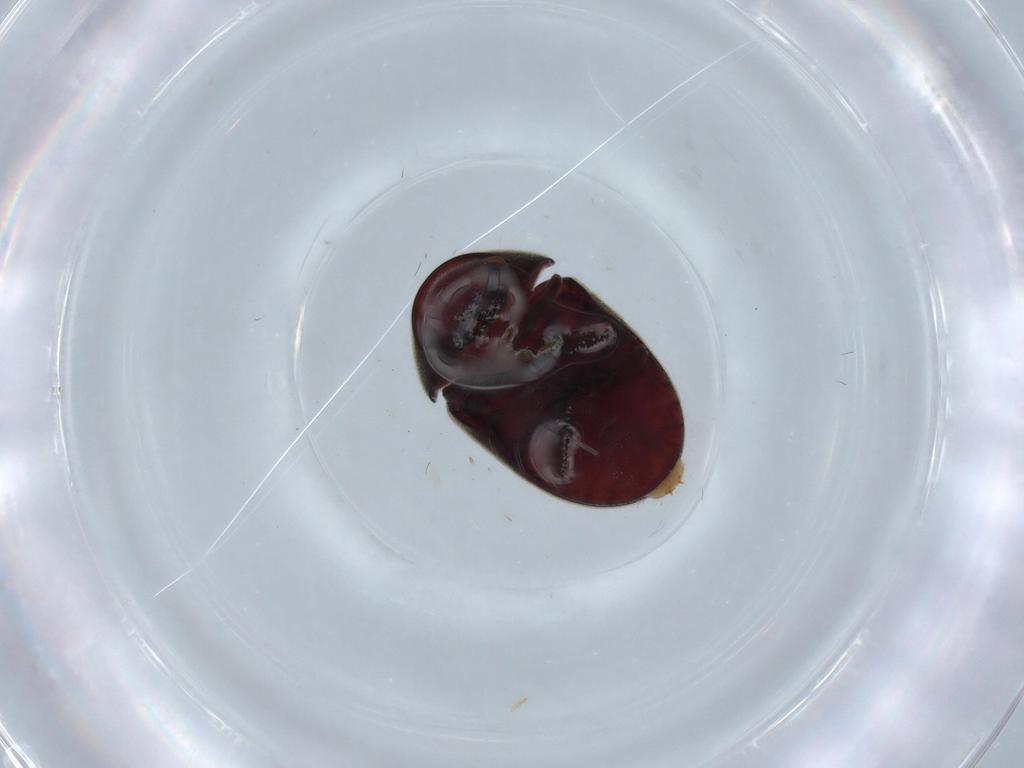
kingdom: Animalia
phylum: Arthropoda
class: Insecta
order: Coleoptera
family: Ptinidae
